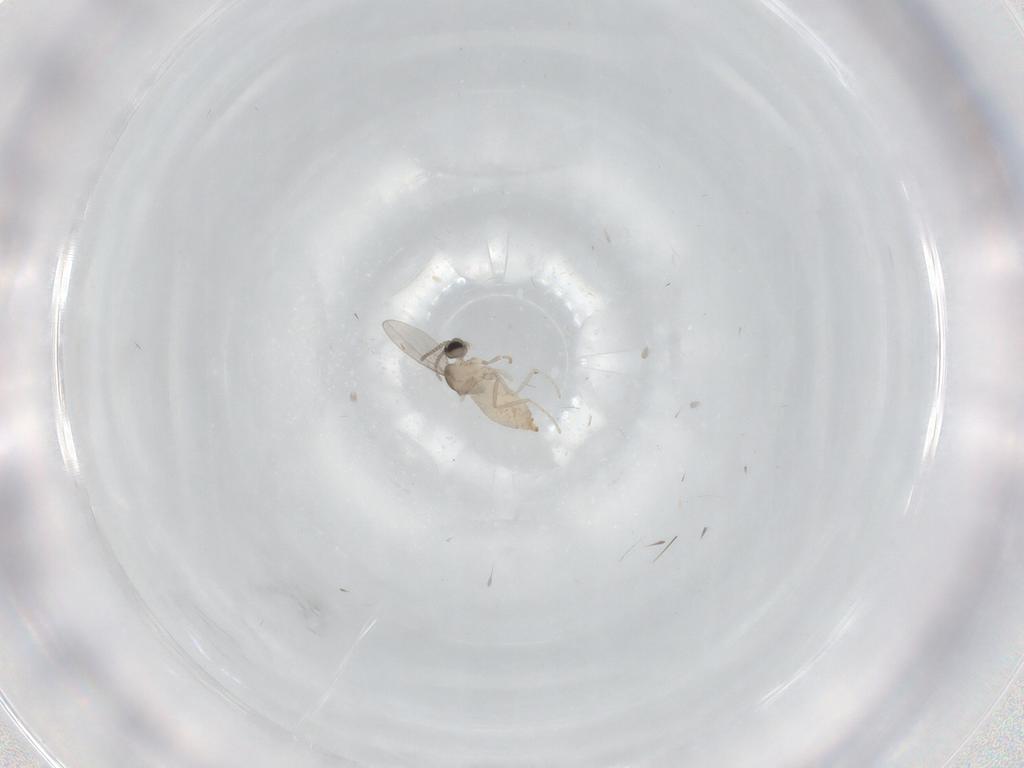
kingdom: Animalia
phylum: Arthropoda
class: Insecta
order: Diptera
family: Cecidomyiidae
